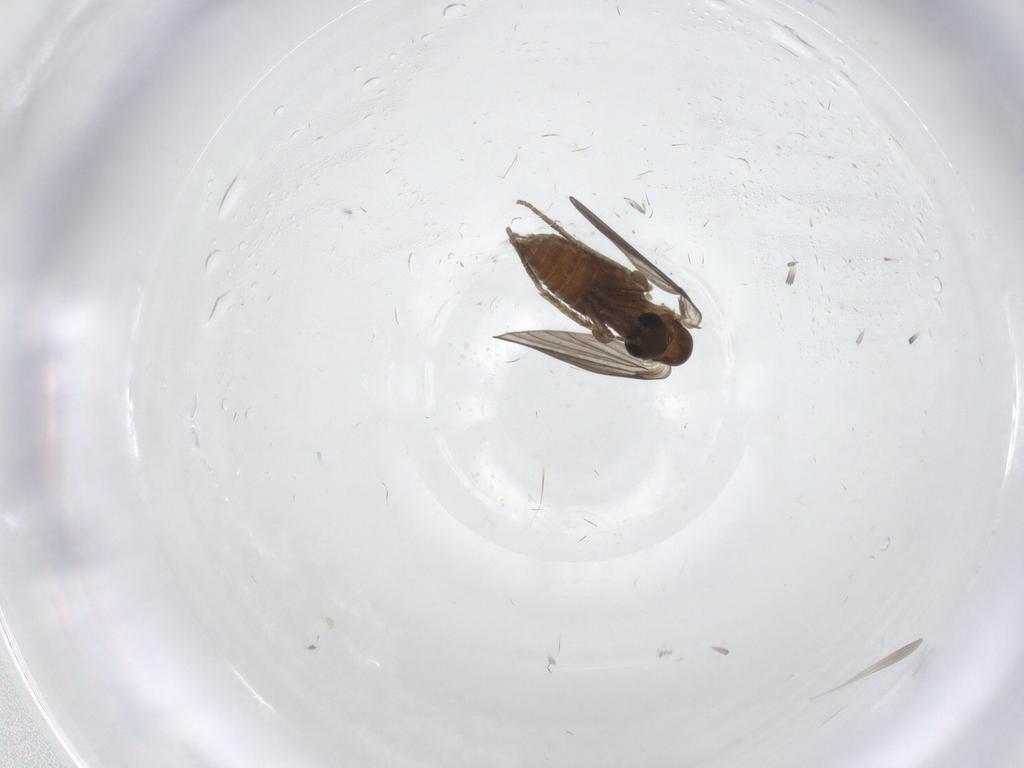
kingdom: Animalia
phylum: Arthropoda
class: Insecta
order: Diptera
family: Psychodidae
